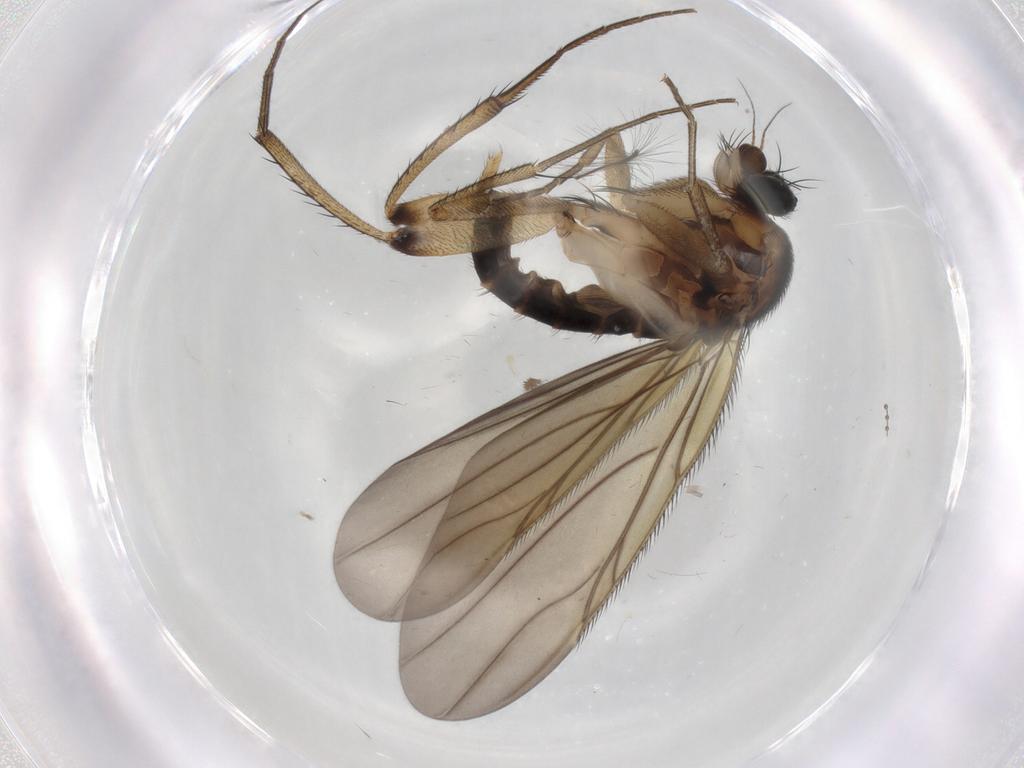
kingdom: Animalia
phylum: Arthropoda
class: Insecta
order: Diptera
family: Phoridae
